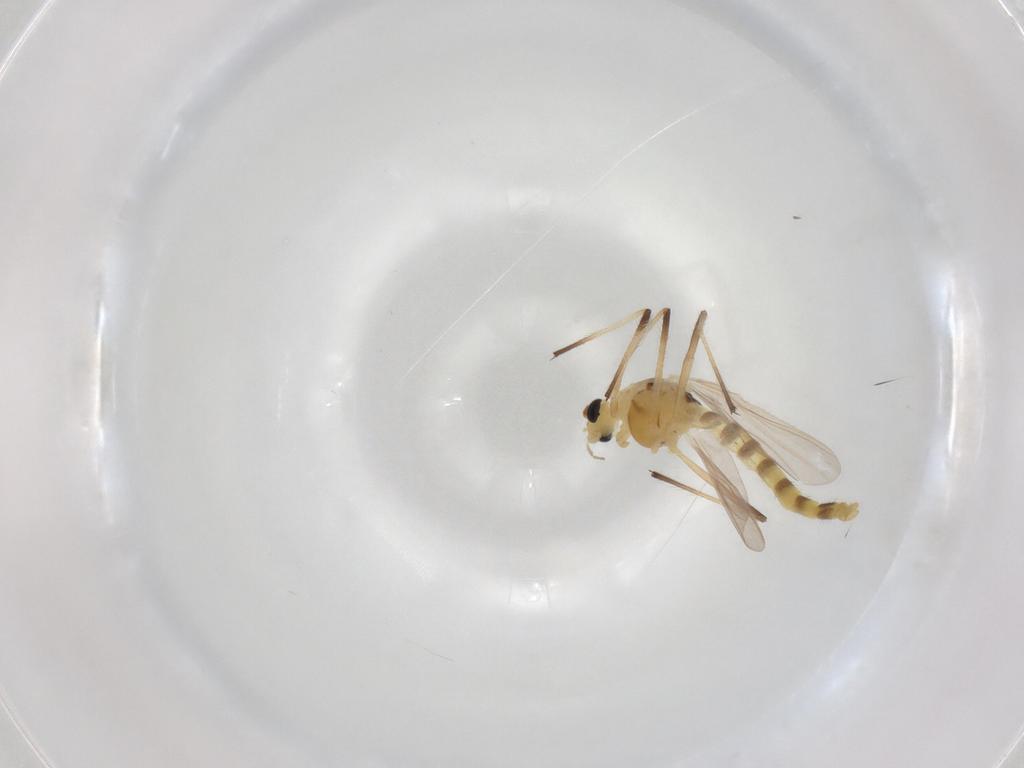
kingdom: Animalia
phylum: Arthropoda
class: Insecta
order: Diptera
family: Chironomidae
